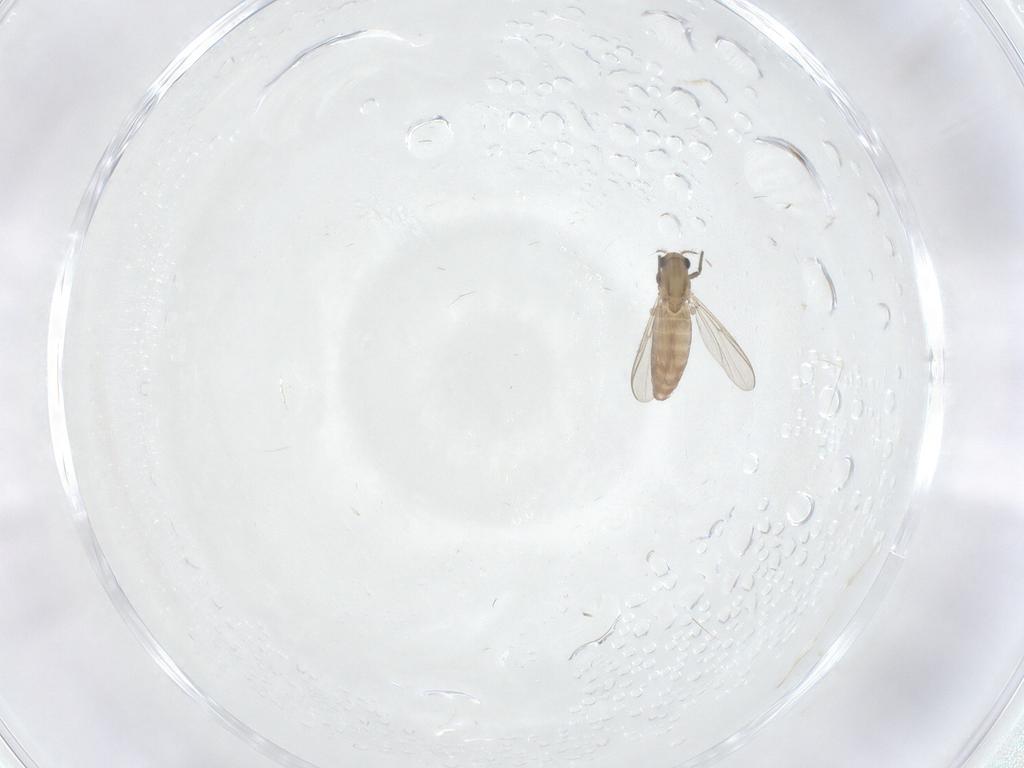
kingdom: Animalia
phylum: Arthropoda
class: Insecta
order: Diptera
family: Chironomidae
